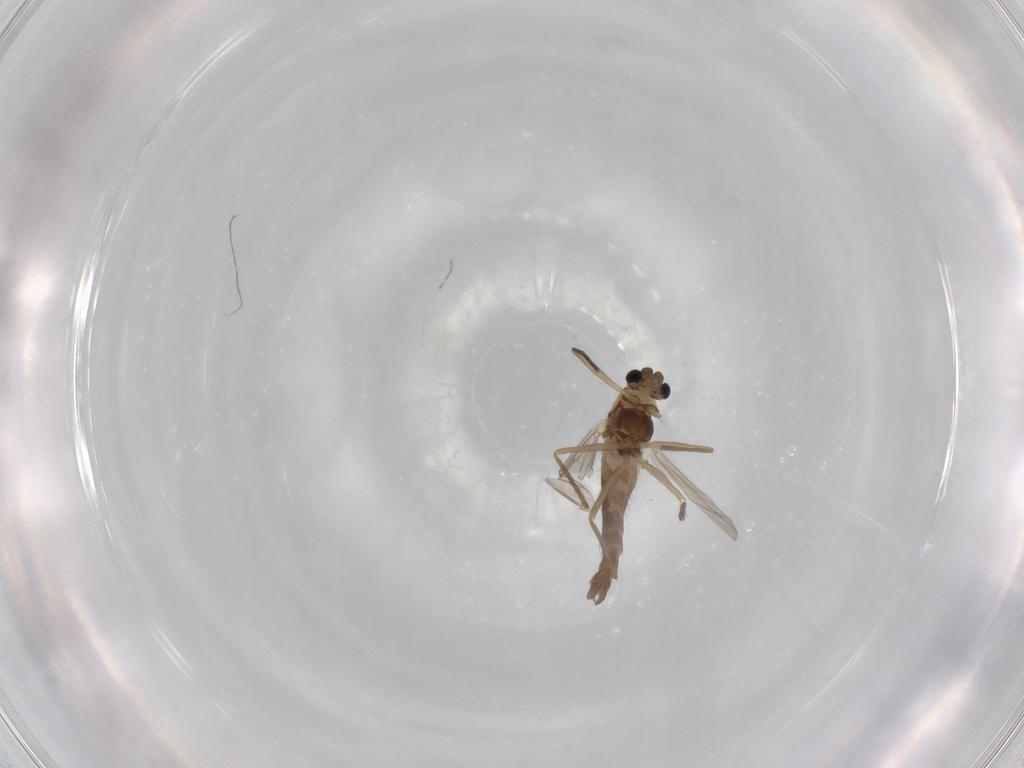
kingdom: Animalia
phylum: Arthropoda
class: Insecta
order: Diptera
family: Chironomidae
